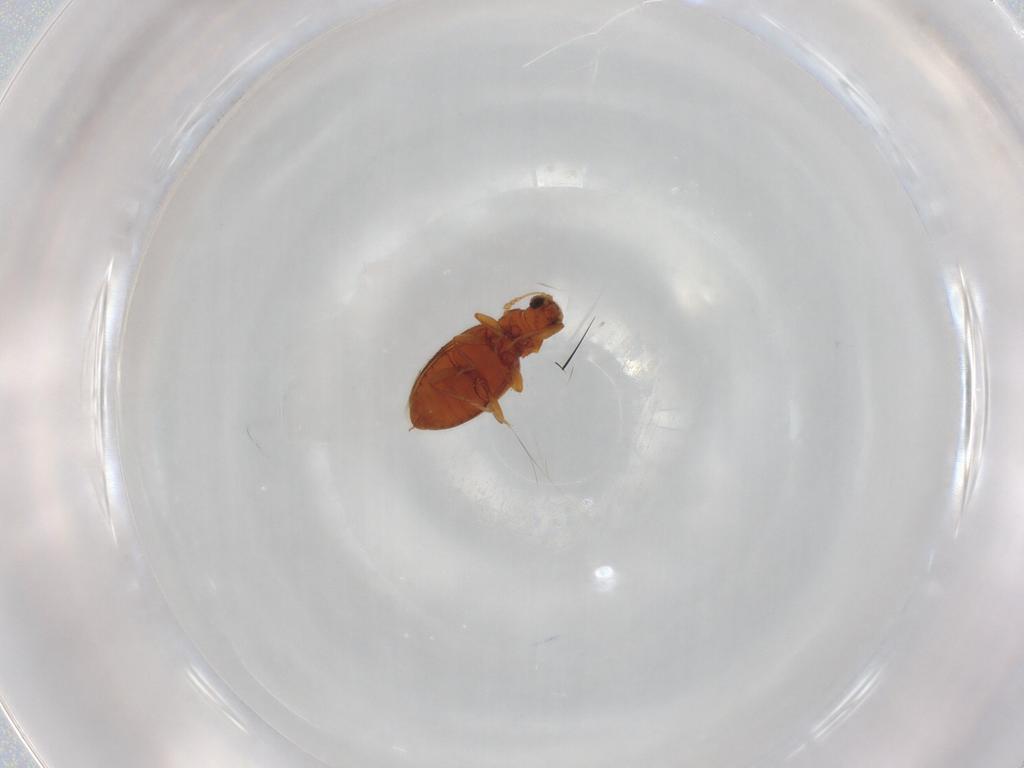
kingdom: Animalia
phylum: Arthropoda
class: Insecta
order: Coleoptera
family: Latridiidae
